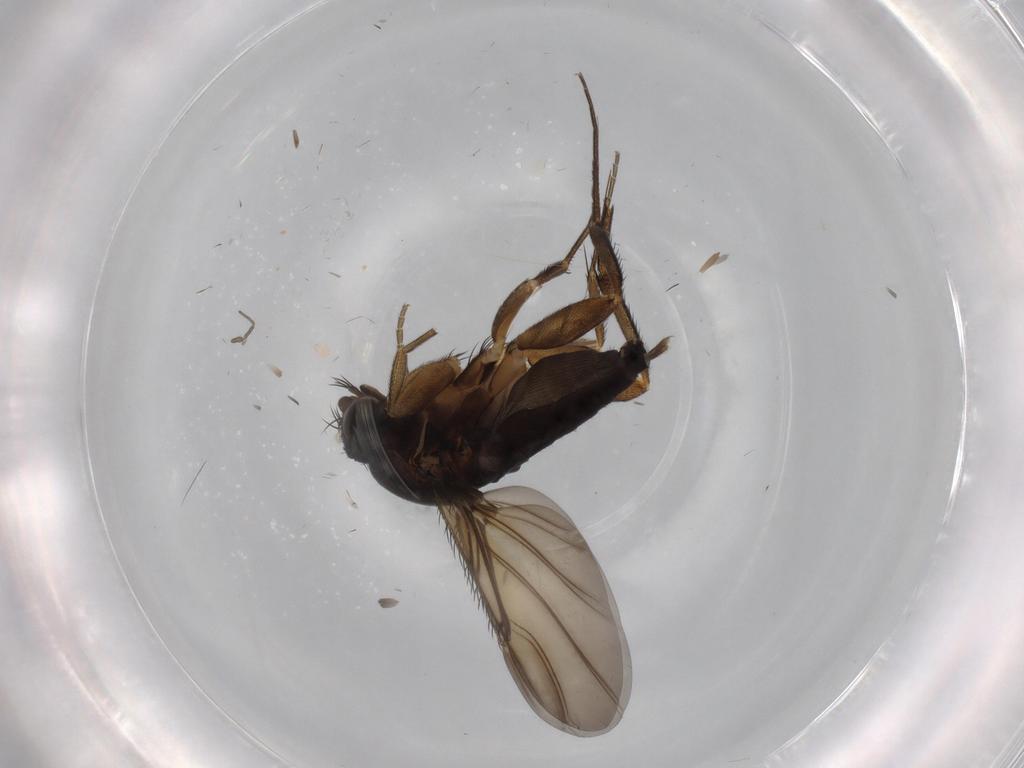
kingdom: Animalia
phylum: Arthropoda
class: Insecta
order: Diptera
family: Phoridae
